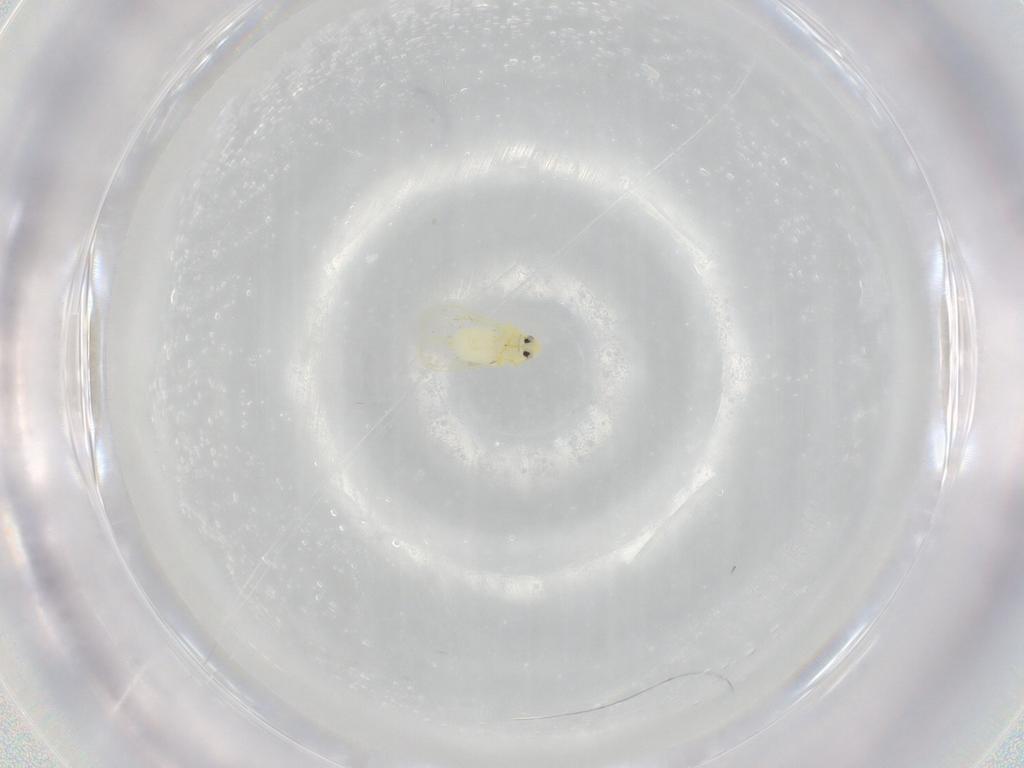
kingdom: Animalia
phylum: Arthropoda
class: Insecta
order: Hemiptera
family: Aleyrodidae
